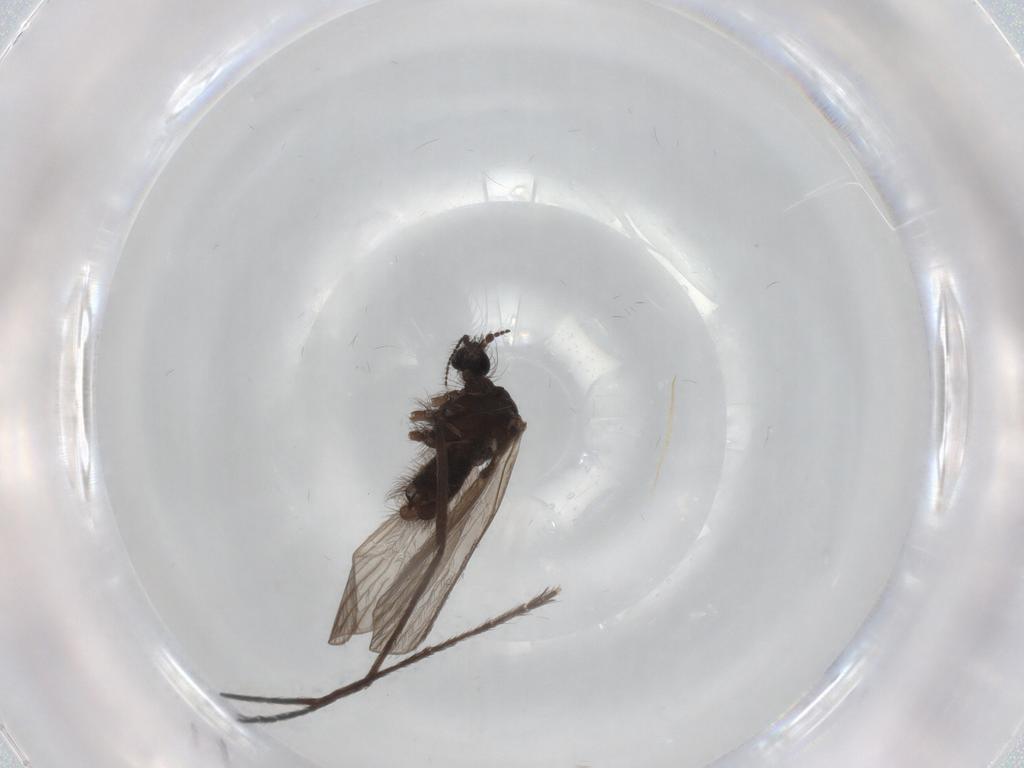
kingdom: Animalia
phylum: Arthropoda
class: Insecta
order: Diptera
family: Limoniidae
